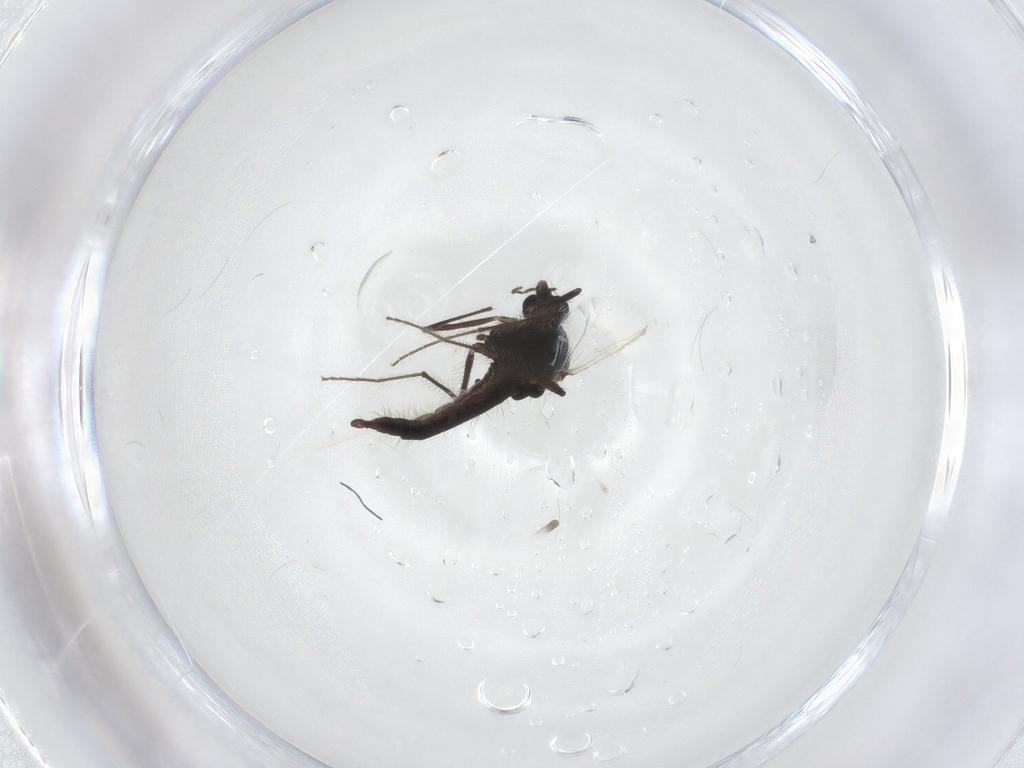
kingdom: Animalia
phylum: Arthropoda
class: Insecta
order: Diptera
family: Chironomidae
